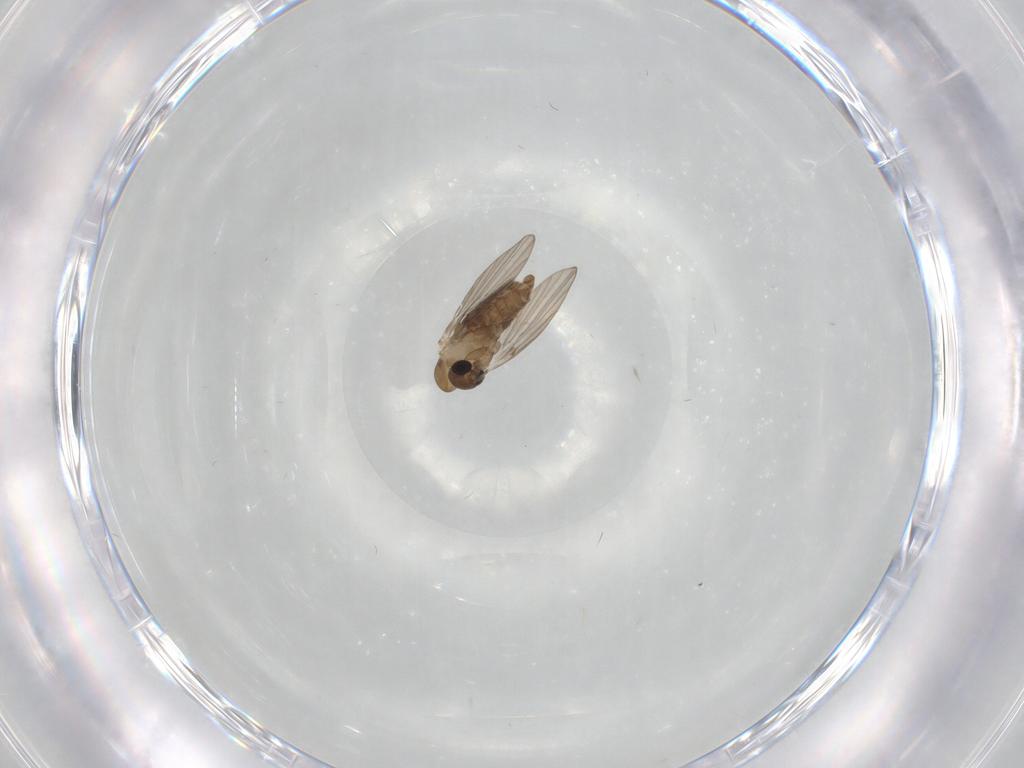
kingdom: Animalia
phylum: Arthropoda
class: Insecta
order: Diptera
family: Psychodidae
